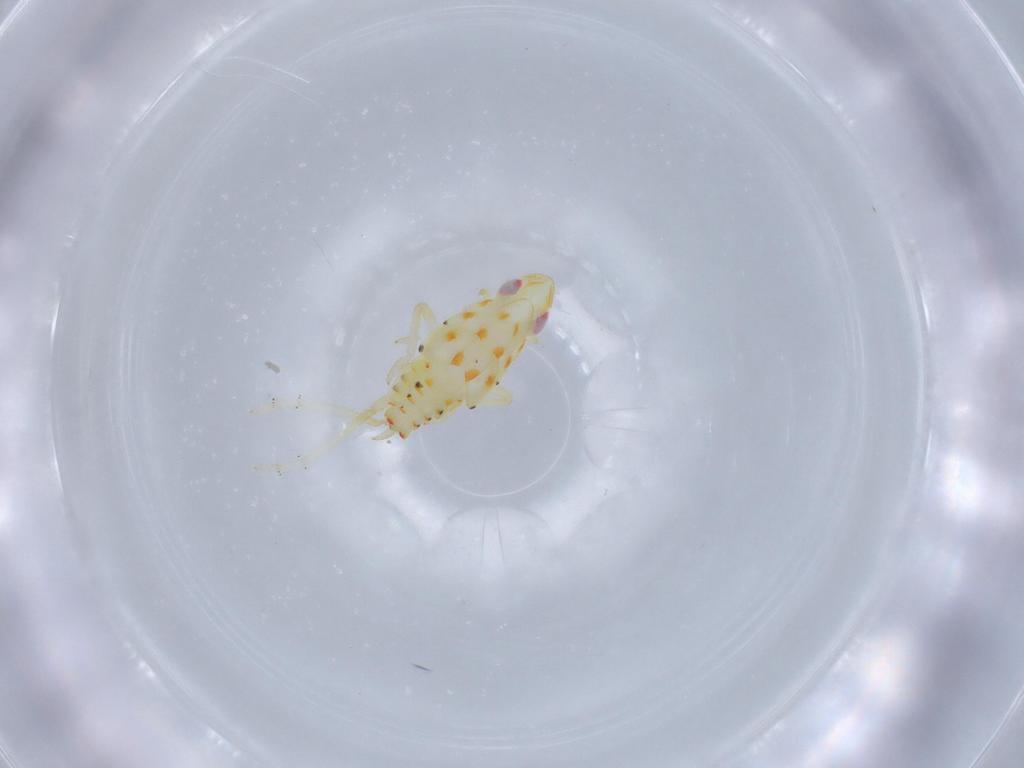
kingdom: Animalia
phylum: Arthropoda
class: Insecta
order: Hemiptera
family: Tropiduchidae
